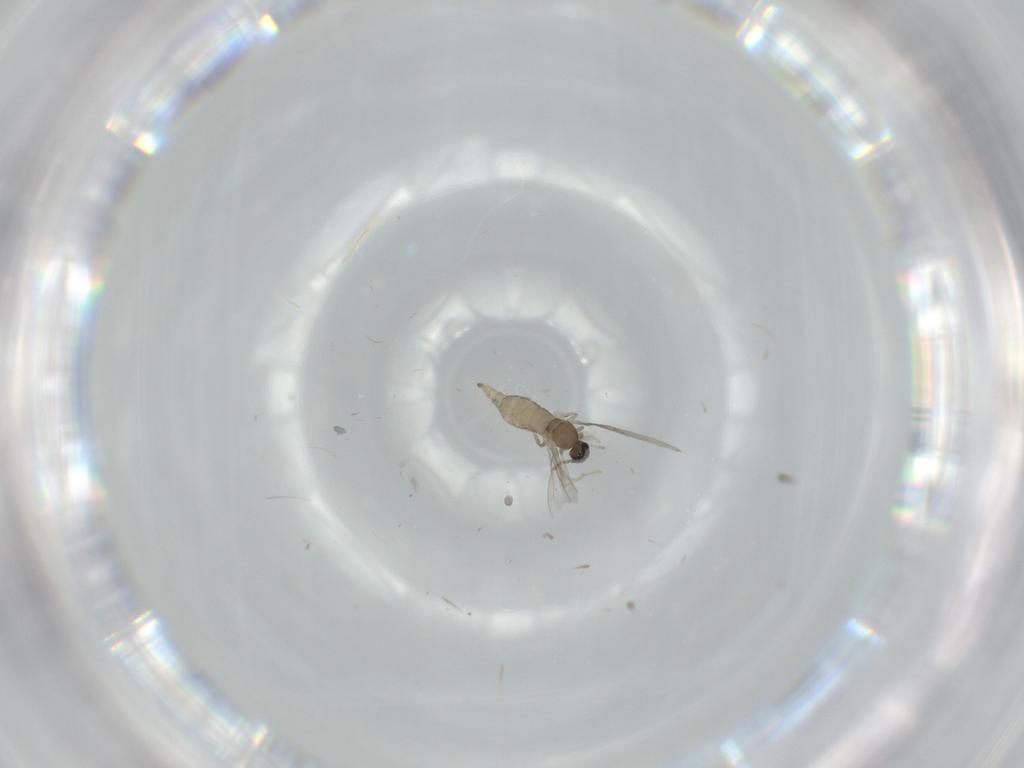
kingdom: Animalia
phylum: Arthropoda
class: Insecta
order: Diptera
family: Cecidomyiidae
